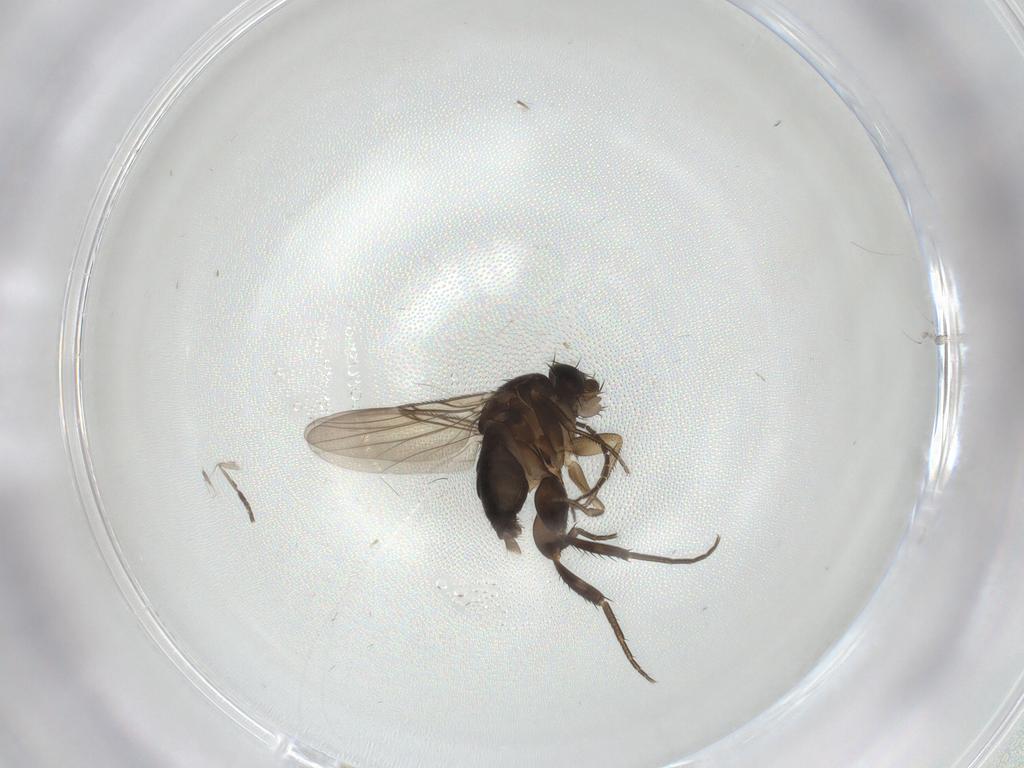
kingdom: Animalia
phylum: Arthropoda
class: Insecta
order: Diptera
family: Phoridae
